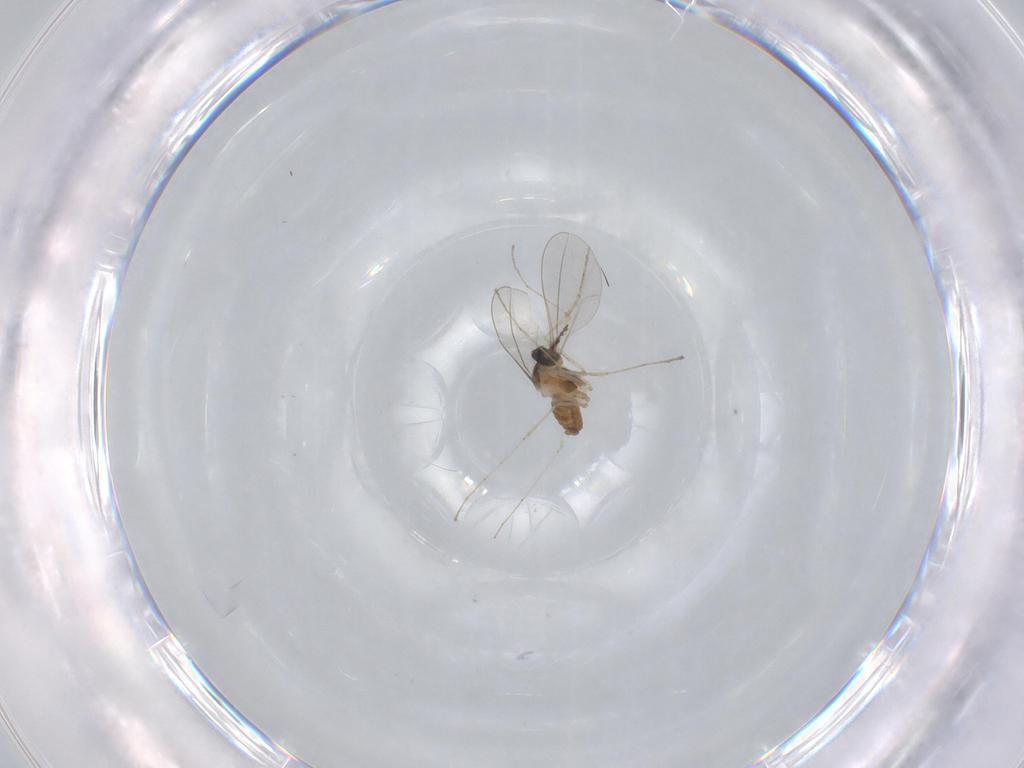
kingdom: Animalia
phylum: Arthropoda
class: Insecta
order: Diptera
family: Cecidomyiidae
